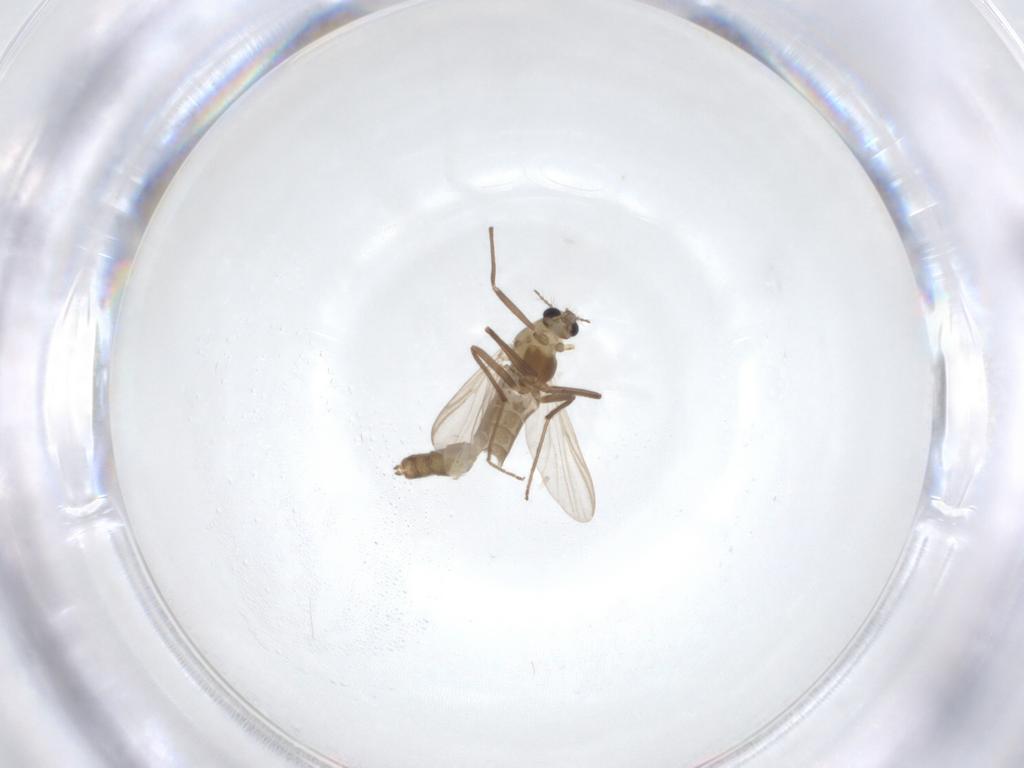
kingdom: Animalia
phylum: Arthropoda
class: Insecta
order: Diptera
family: Chironomidae
